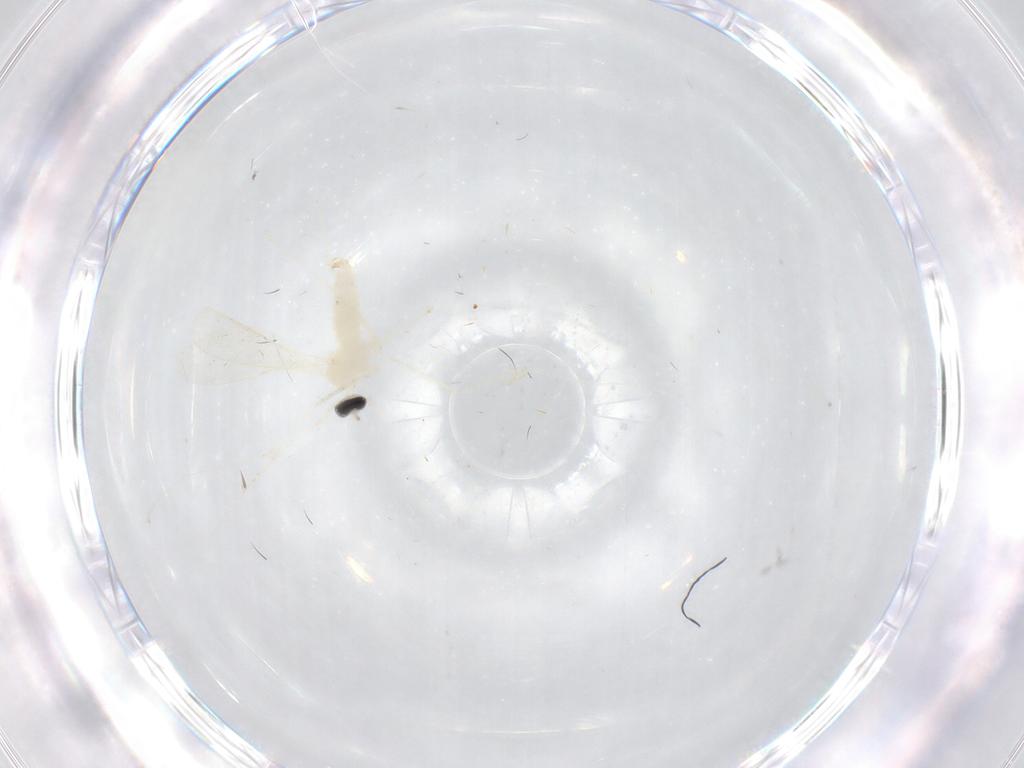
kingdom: Animalia
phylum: Arthropoda
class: Insecta
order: Diptera
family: Cecidomyiidae
